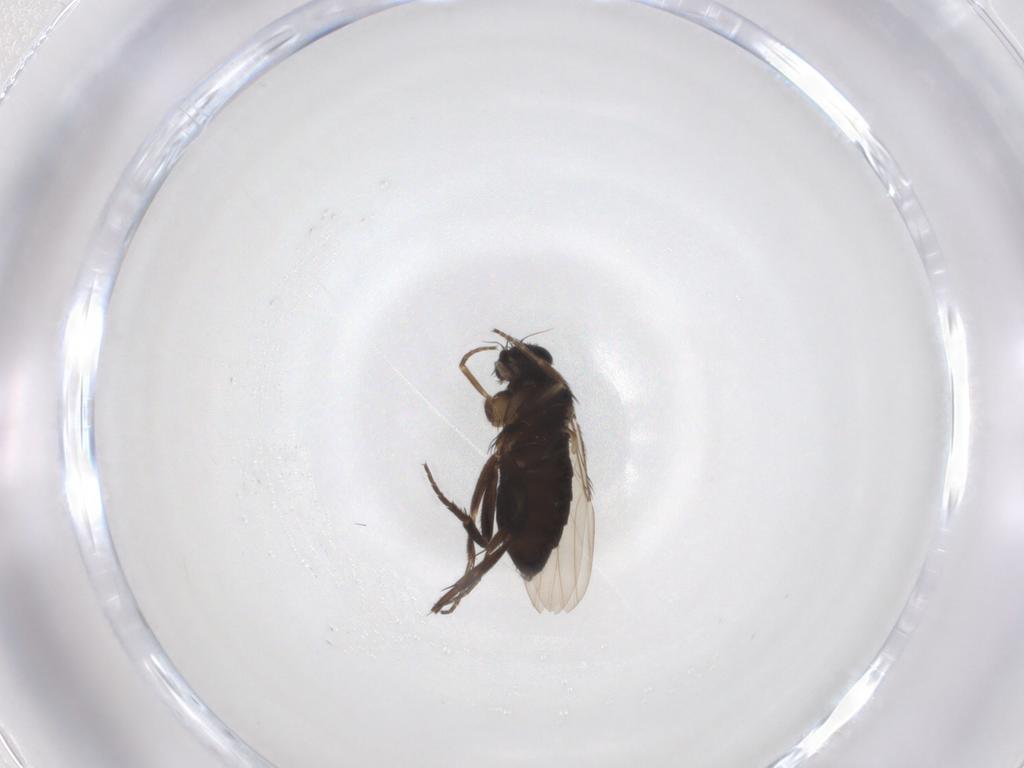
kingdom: Animalia
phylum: Arthropoda
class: Insecta
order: Diptera
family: Phoridae
